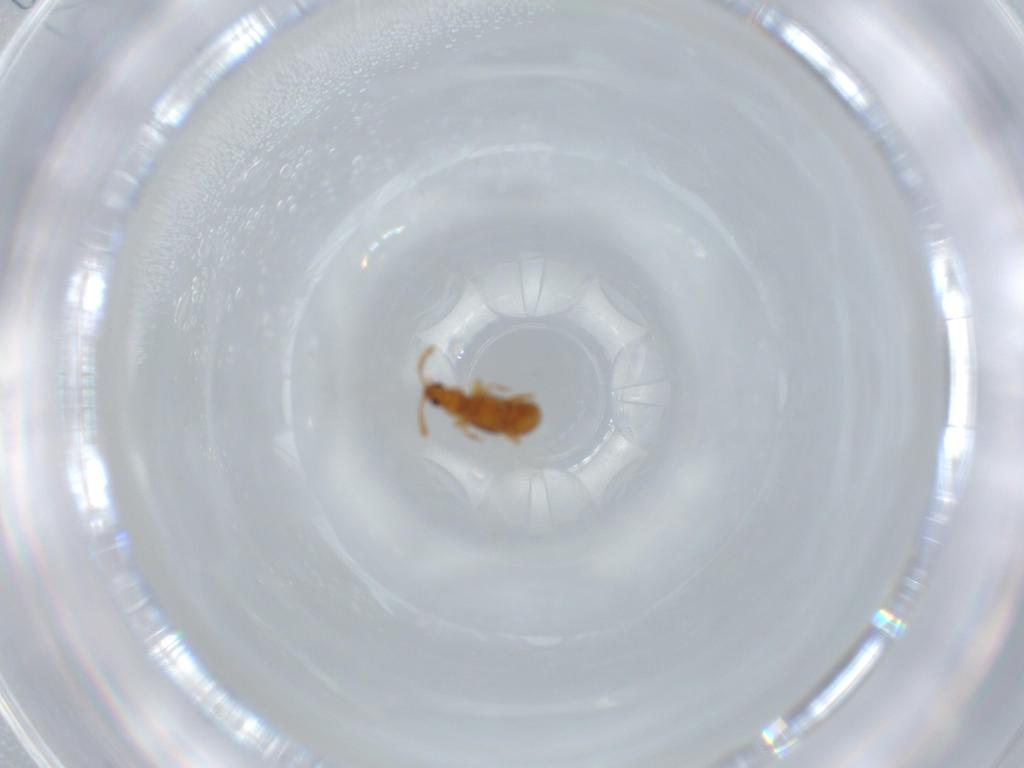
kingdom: Animalia
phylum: Arthropoda
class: Insecta
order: Coleoptera
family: Staphylinidae
